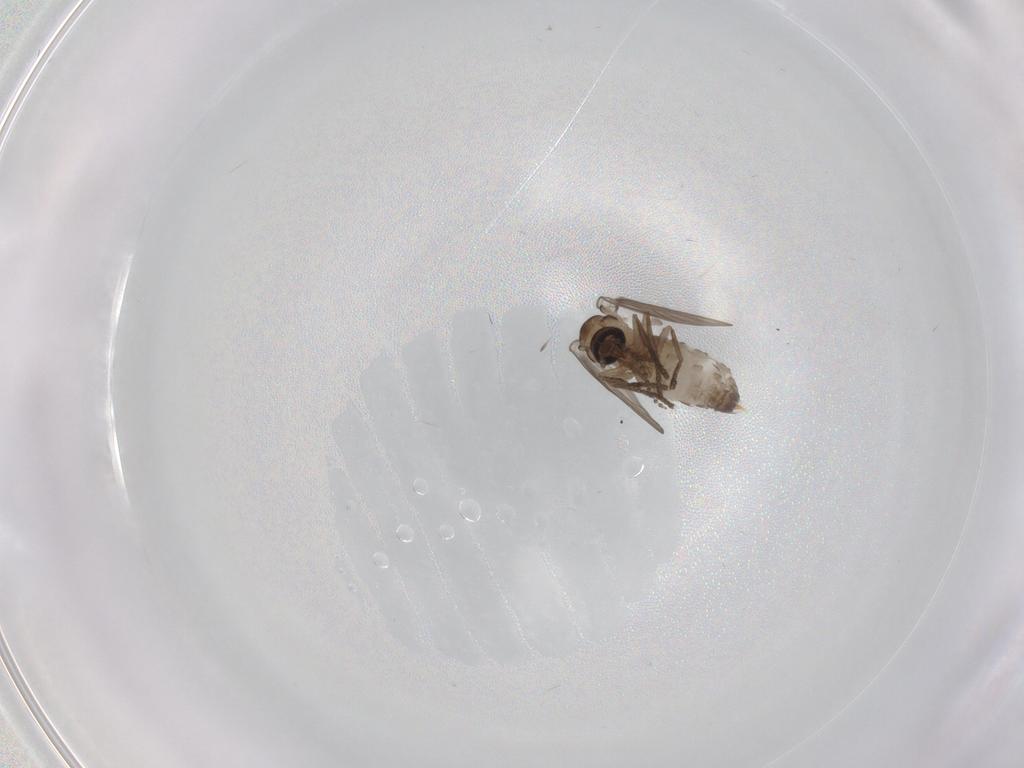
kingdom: Animalia
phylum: Arthropoda
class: Insecta
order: Diptera
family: Psychodidae
